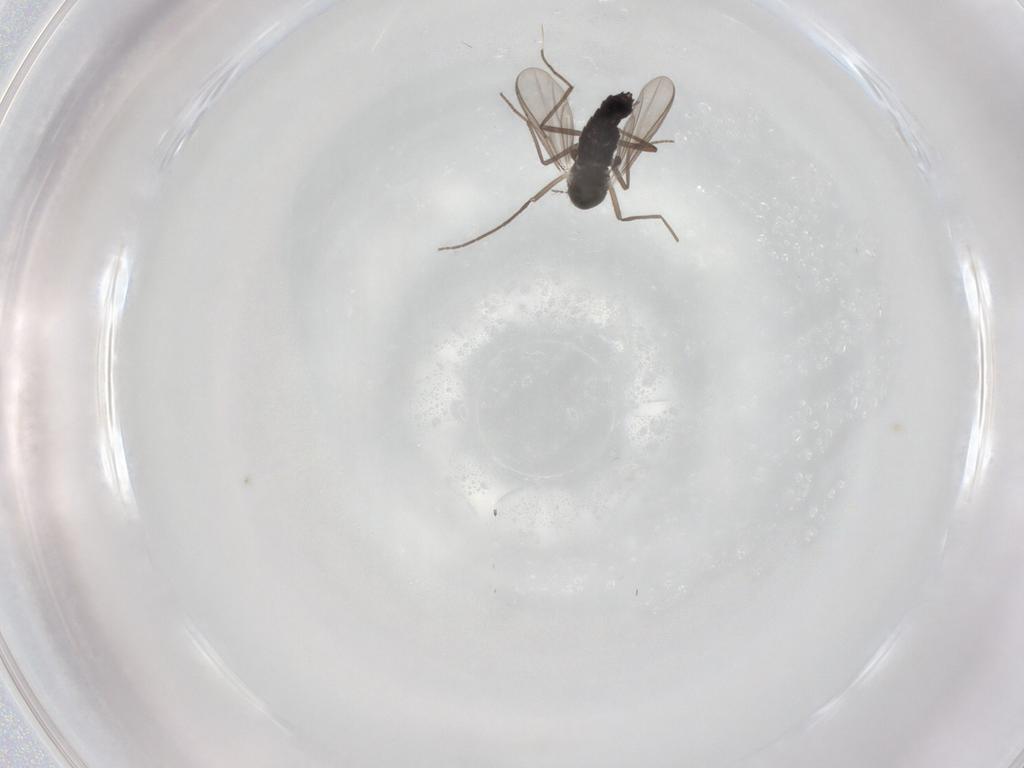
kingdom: Animalia
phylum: Arthropoda
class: Insecta
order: Diptera
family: Chironomidae
